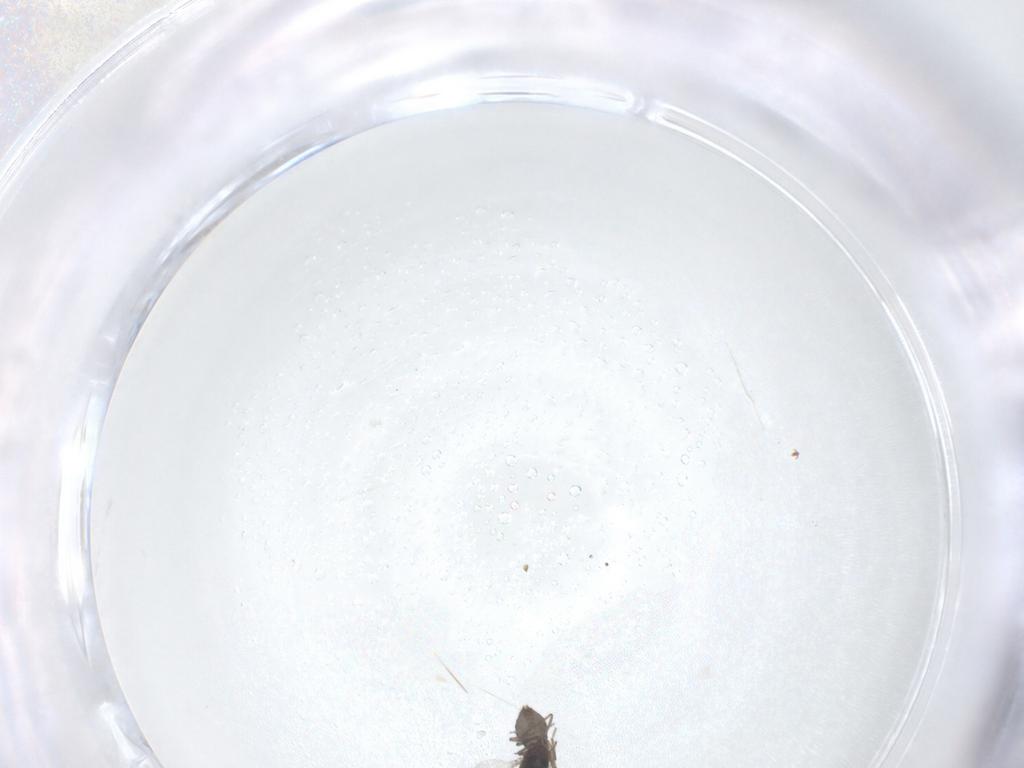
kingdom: Animalia
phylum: Arthropoda
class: Insecta
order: Diptera
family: Ceratopogonidae
